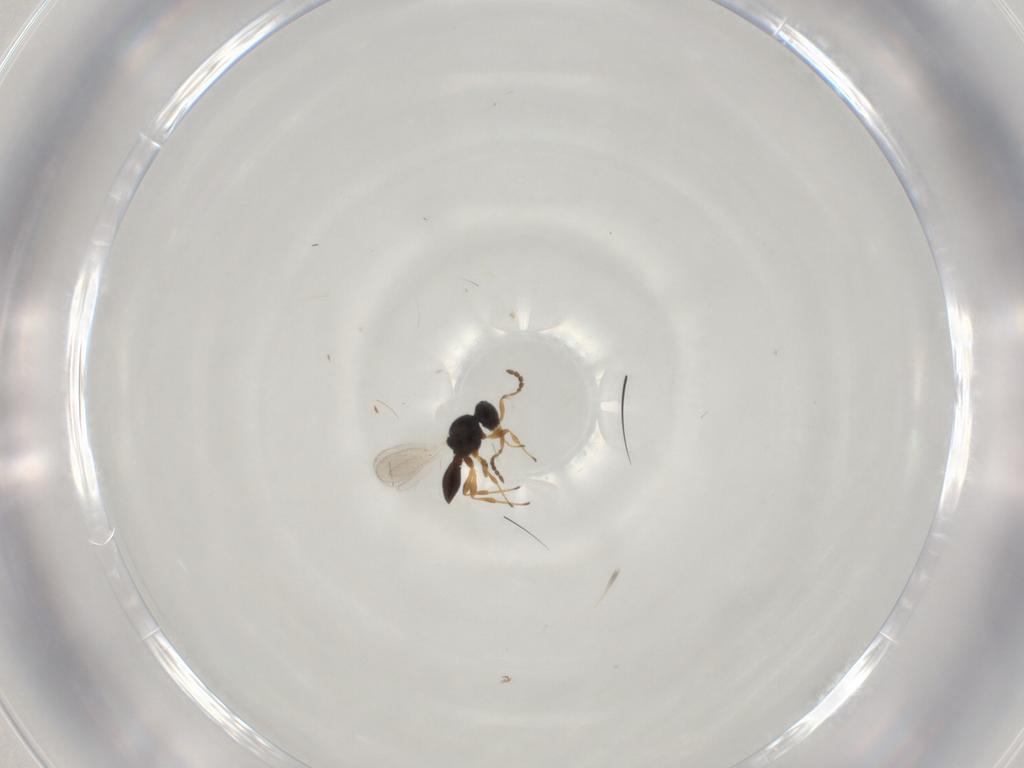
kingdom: Animalia
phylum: Arthropoda
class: Insecta
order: Hymenoptera
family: Platygastridae
